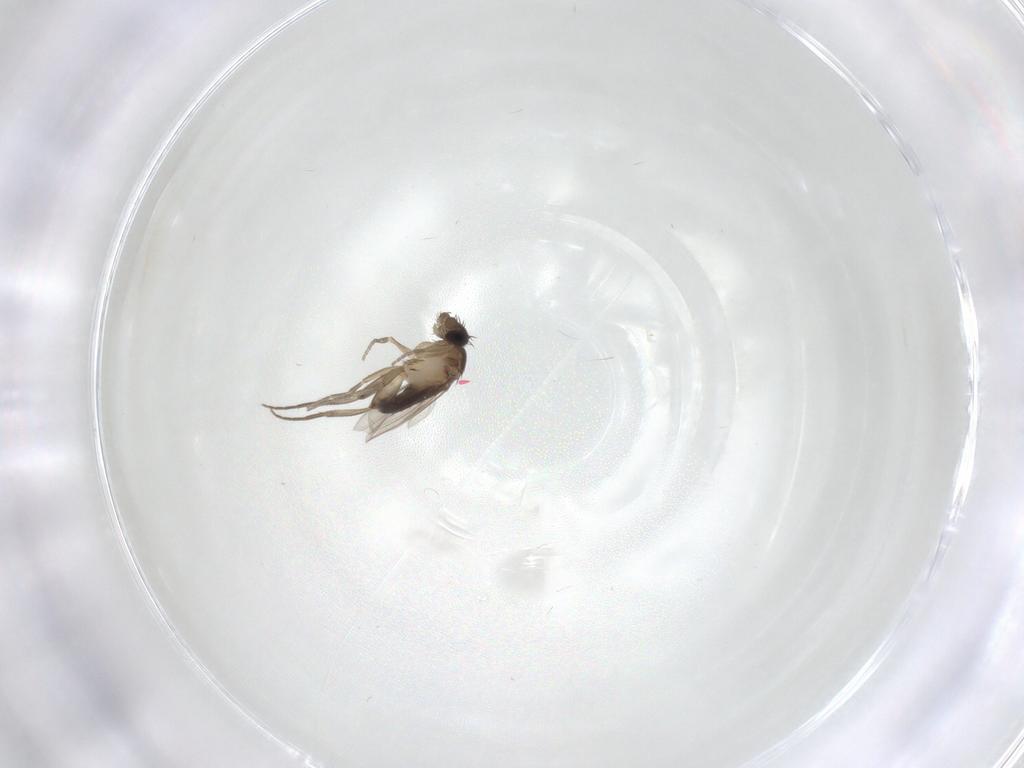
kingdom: Animalia
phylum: Arthropoda
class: Insecta
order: Diptera
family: Phoridae
